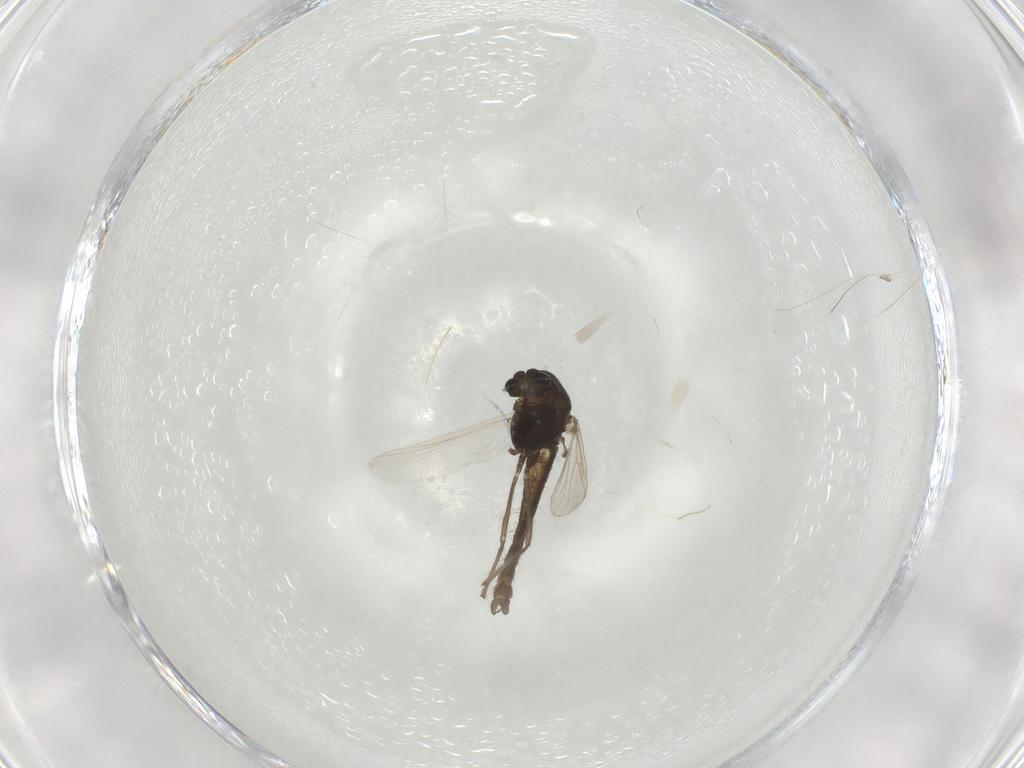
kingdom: Animalia
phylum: Arthropoda
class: Insecta
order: Diptera
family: Chironomidae
